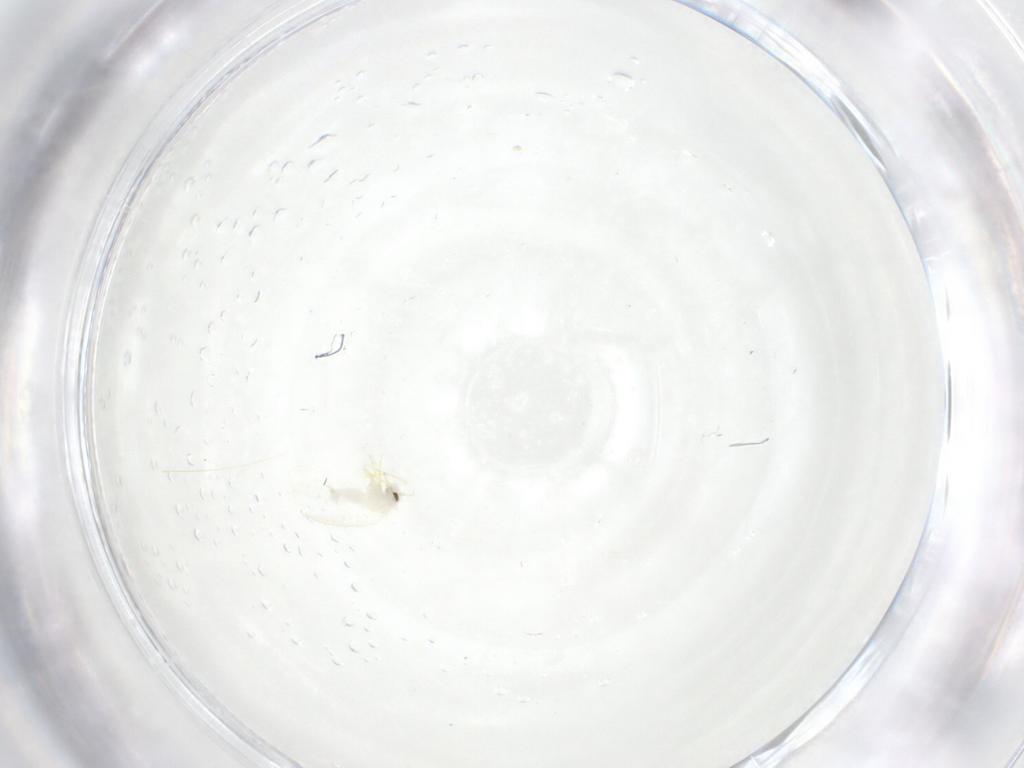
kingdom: Animalia
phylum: Arthropoda
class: Insecta
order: Hemiptera
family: Aleyrodidae
